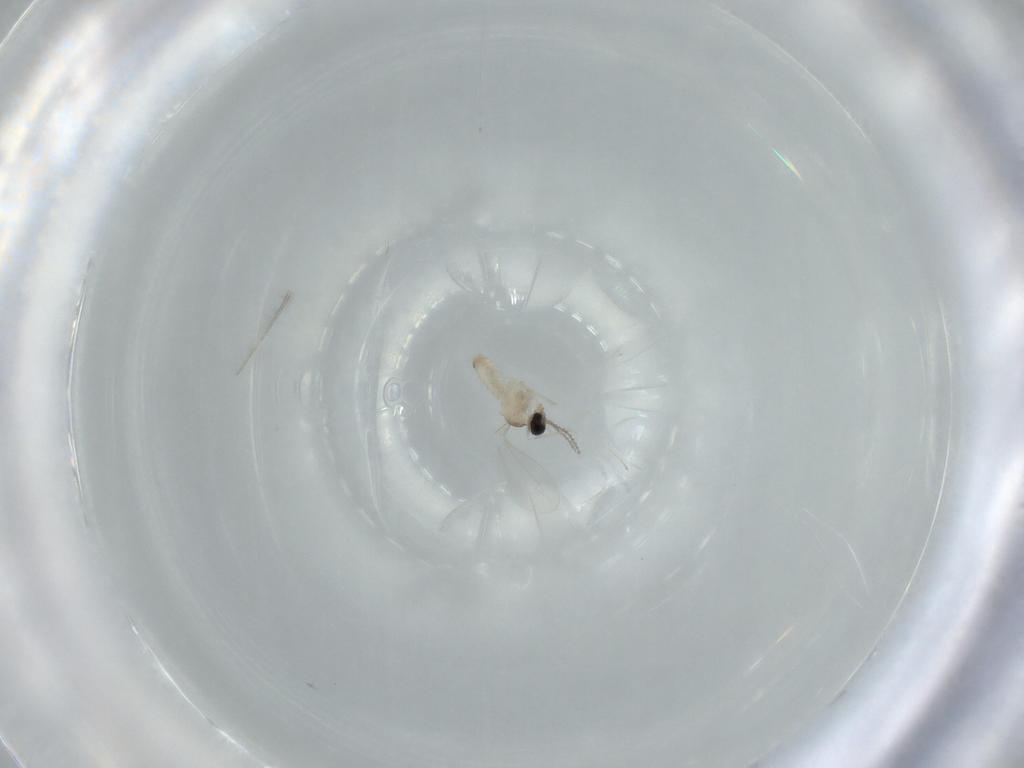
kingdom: Animalia
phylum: Arthropoda
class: Insecta
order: Diptera
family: Cecidomyiidae
